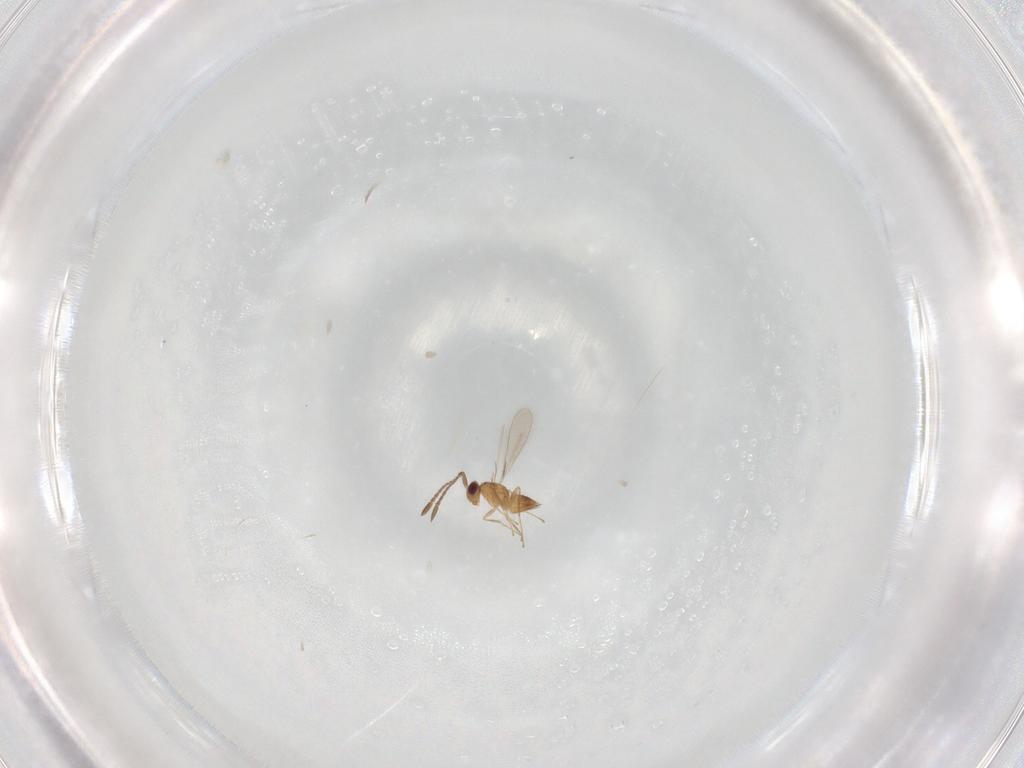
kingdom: Animalia
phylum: Arthropoda
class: Insecta
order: Hymenoptera
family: Mymaridae
